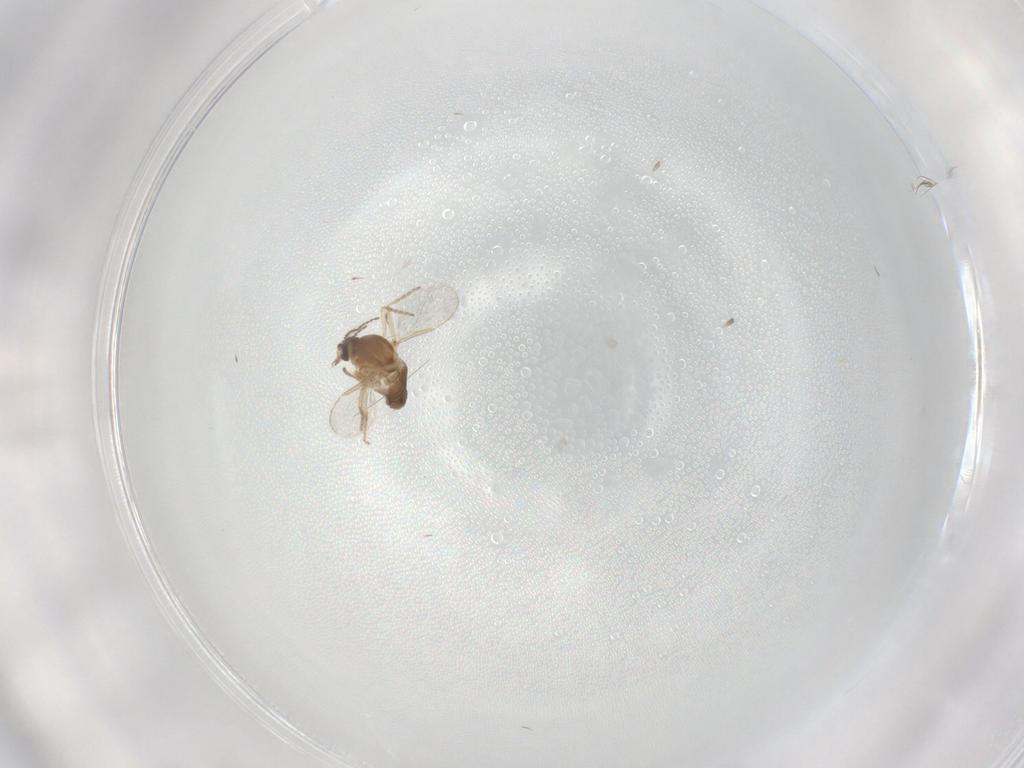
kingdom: Animalia
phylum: Arthropoda
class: Insecta
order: Diptera
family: Ceratopogonidae
